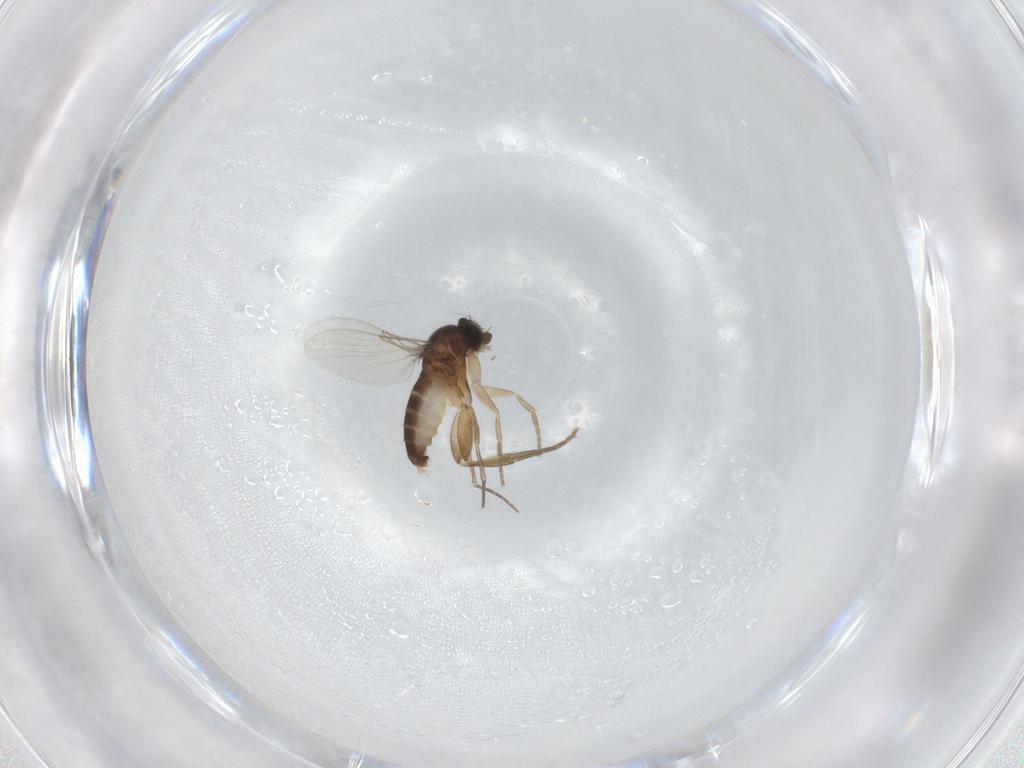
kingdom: Animalia
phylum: Arthropoda
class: Insecta
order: Diptera
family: Phoridae
